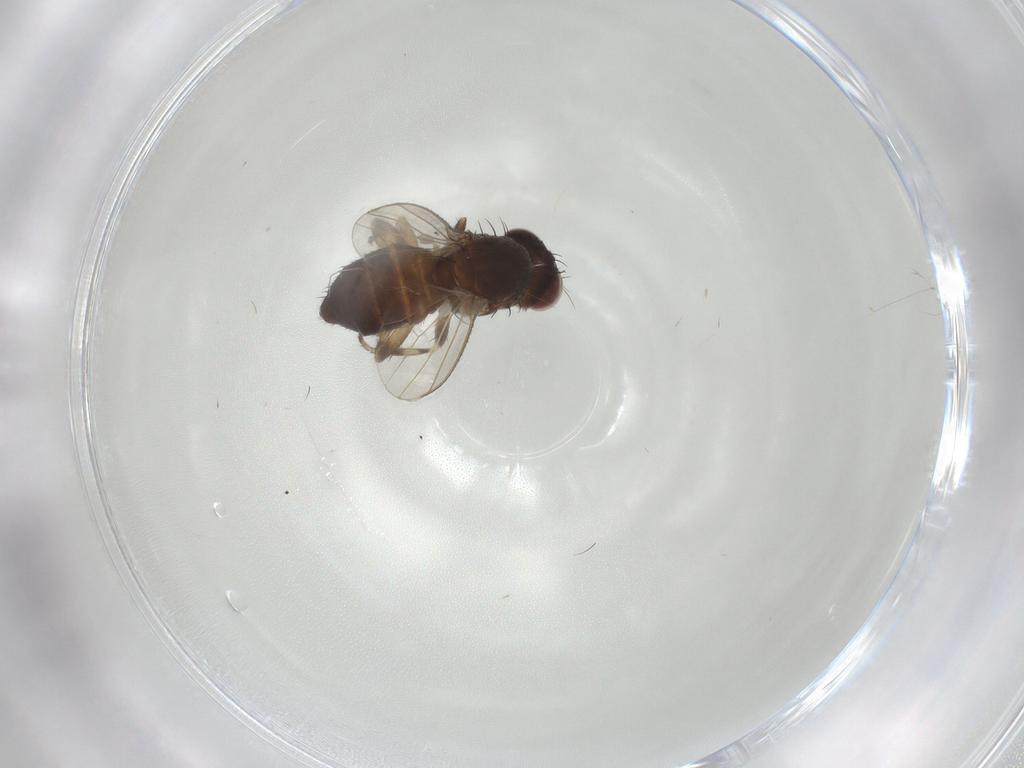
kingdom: Animalia
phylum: Arthropoda
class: Insecta
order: Diptera
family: Heleomyzidae
